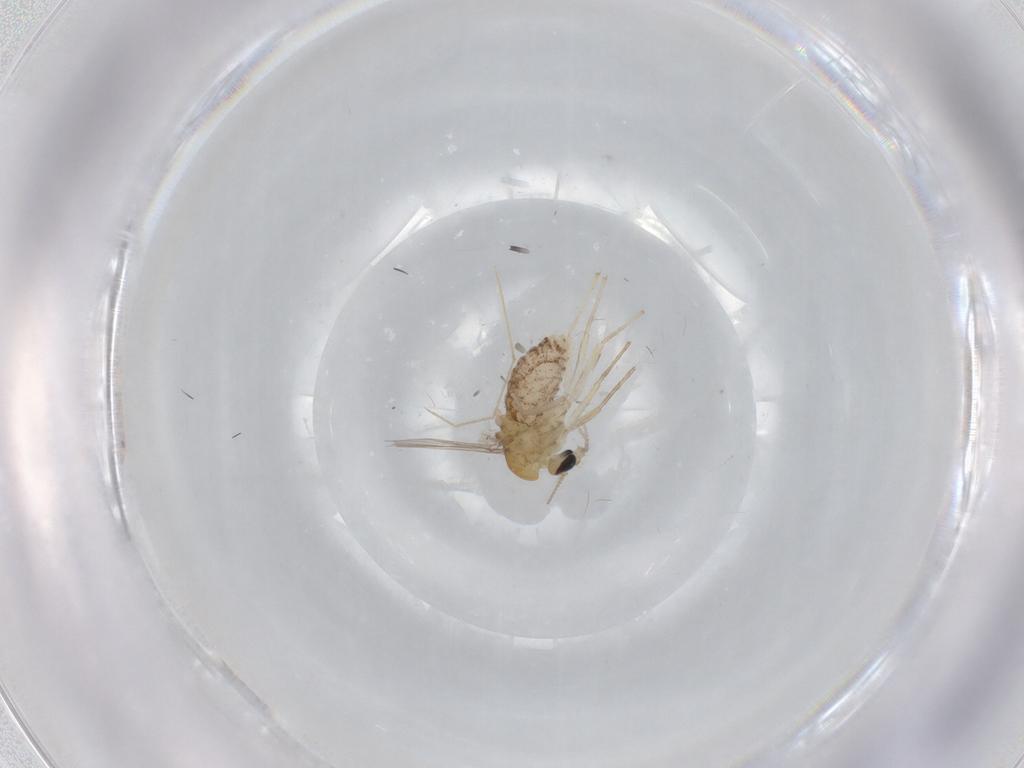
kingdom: Animalia
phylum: Arthropoda
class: Insecta
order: Diptera
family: Chironomidae
